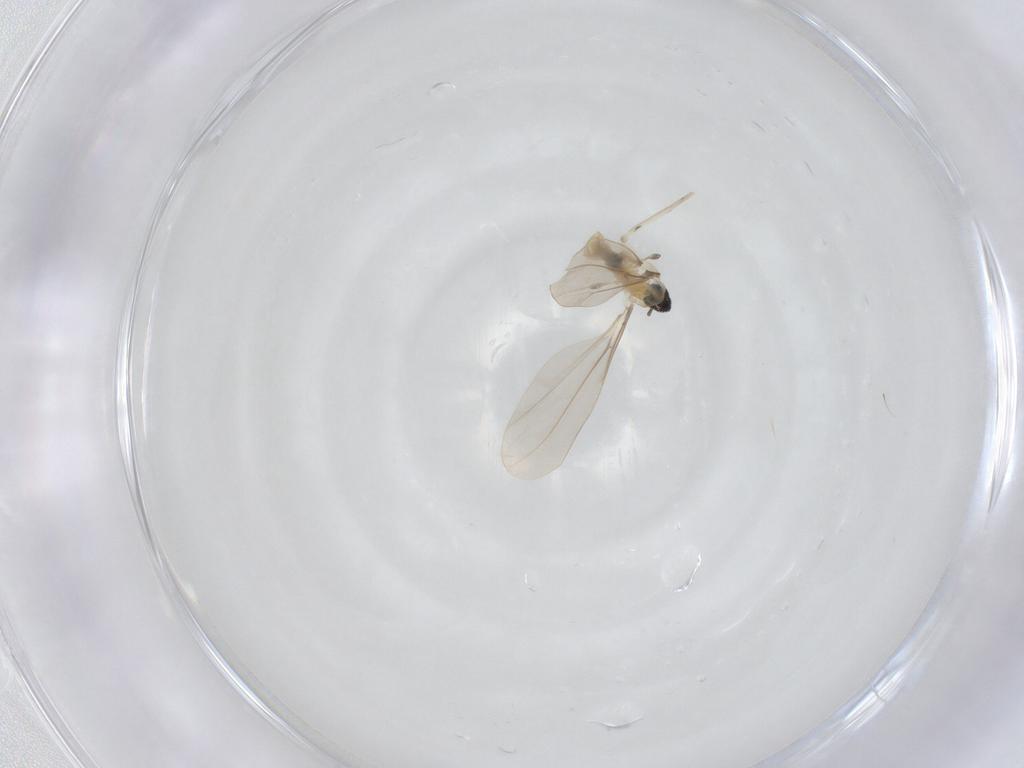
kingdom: Animalia
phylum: Arthropoda
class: Insecta
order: Diptera
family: Cecidomyiidae
